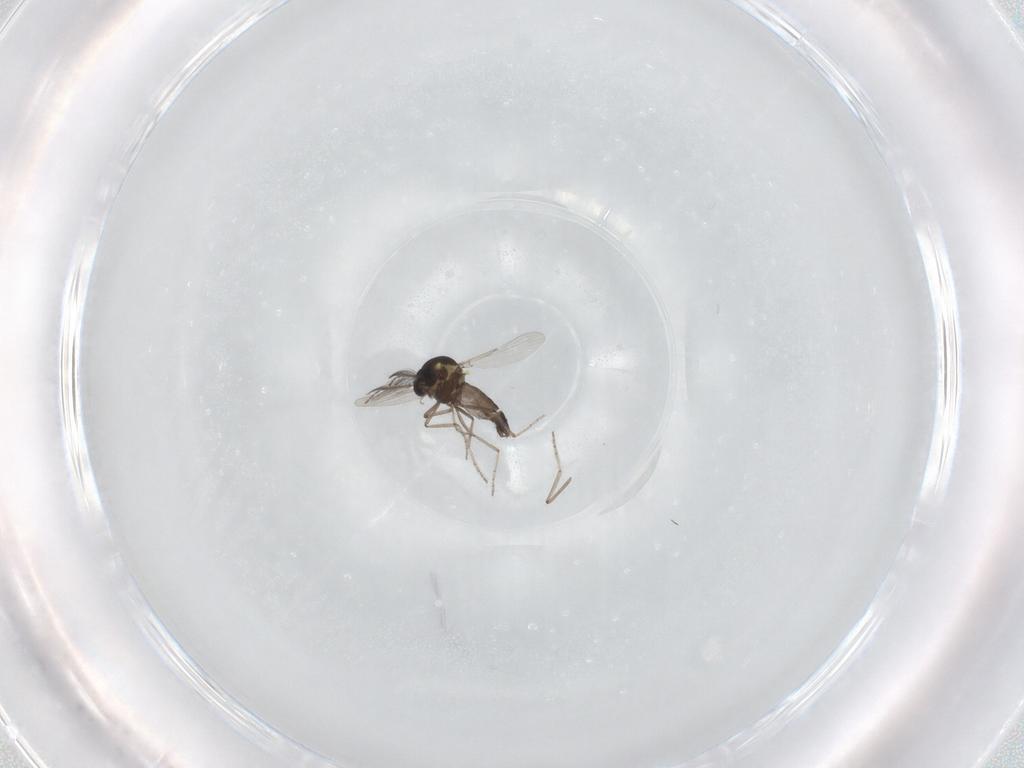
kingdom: Animalia
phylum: Arthropoda
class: Insecta
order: Diptera
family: Ceratopogonidae
